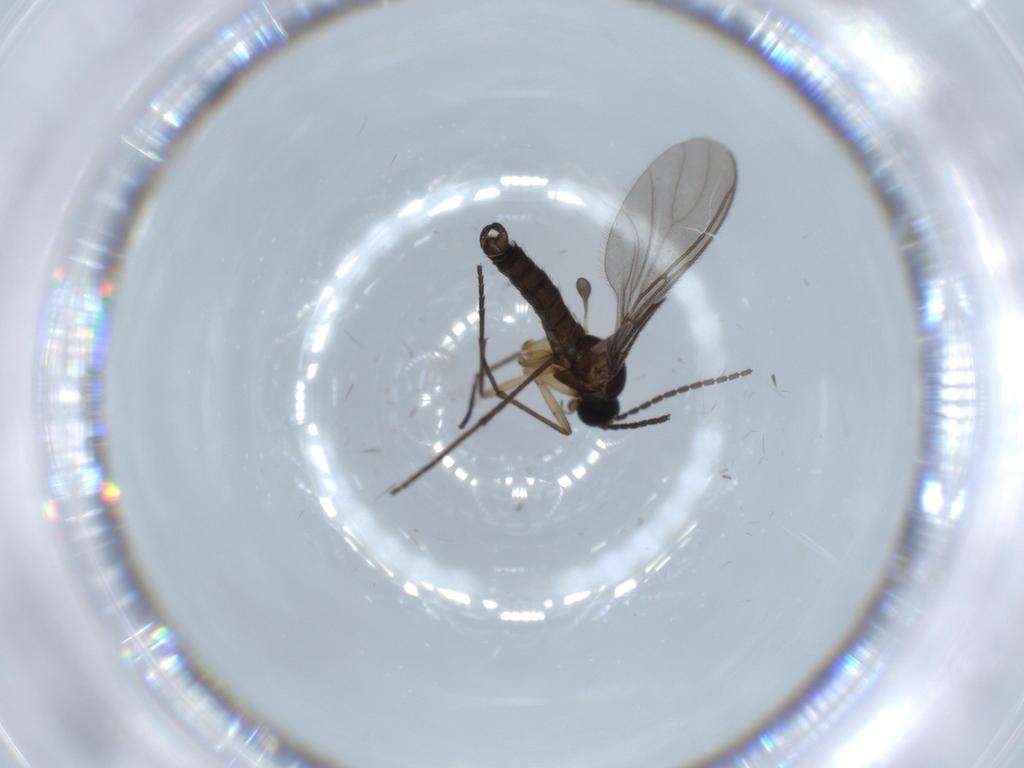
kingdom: Animalia
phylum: Arthropoda
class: Insecta
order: Diptera
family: Sciaridae
